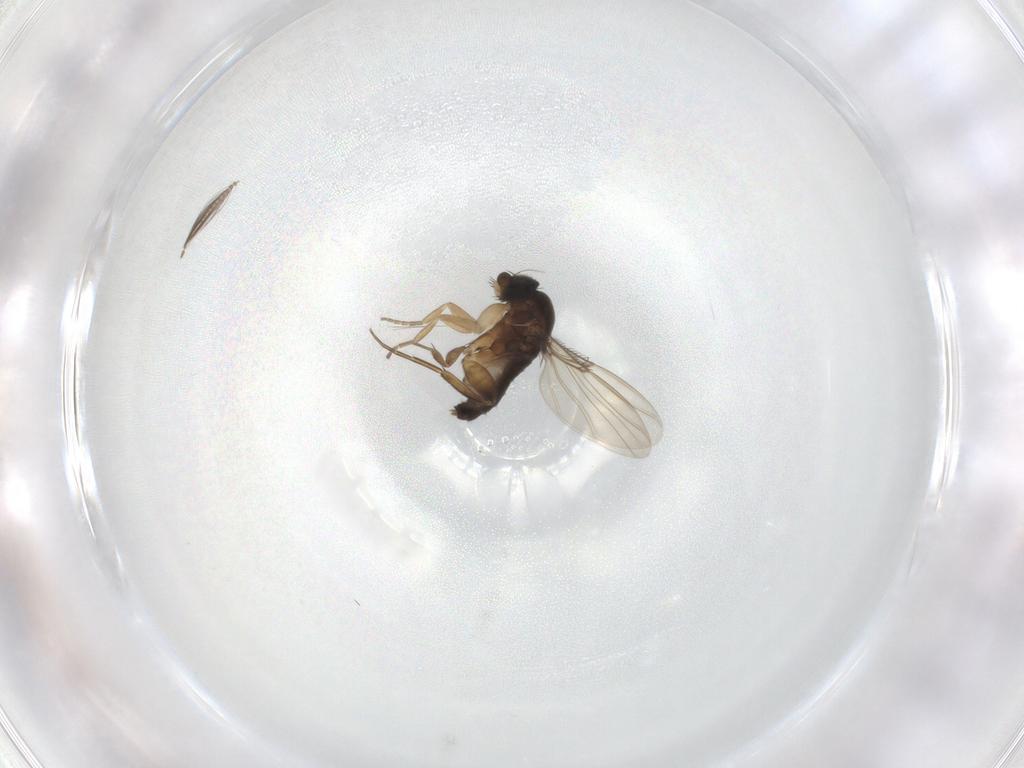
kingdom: Animalia
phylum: Arthropoda
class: Insecta
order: Diptera
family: Phoridae
